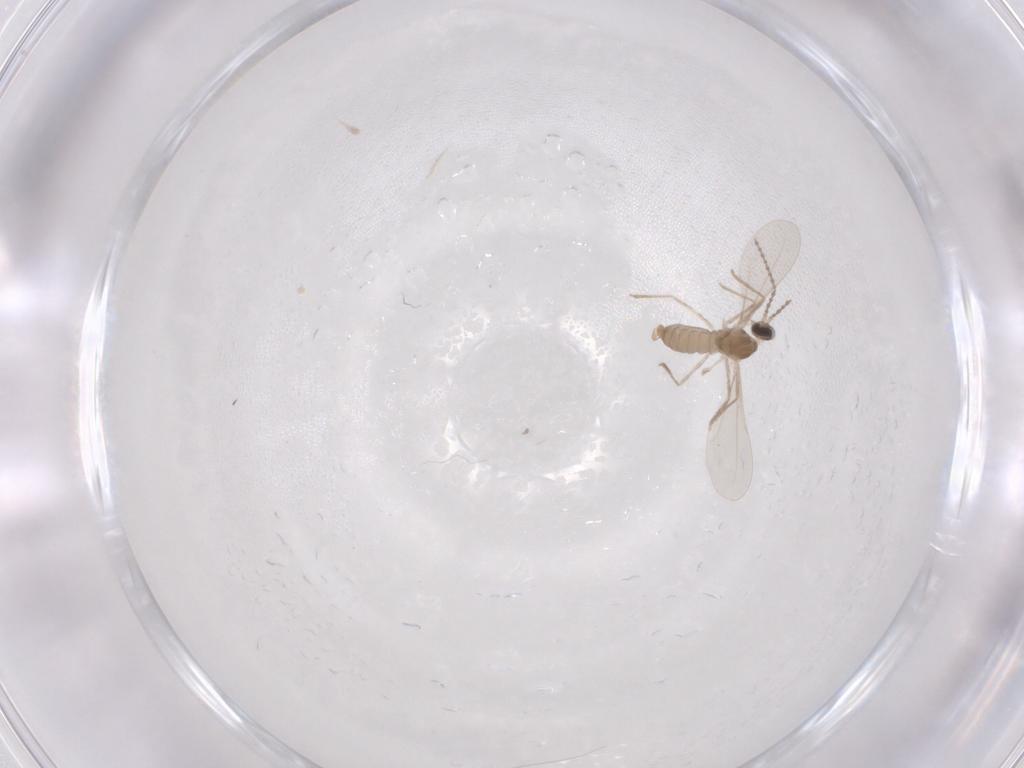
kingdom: Animalia
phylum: Arthropoda
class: Insecta
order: Diptera
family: Cecidomyiidae
